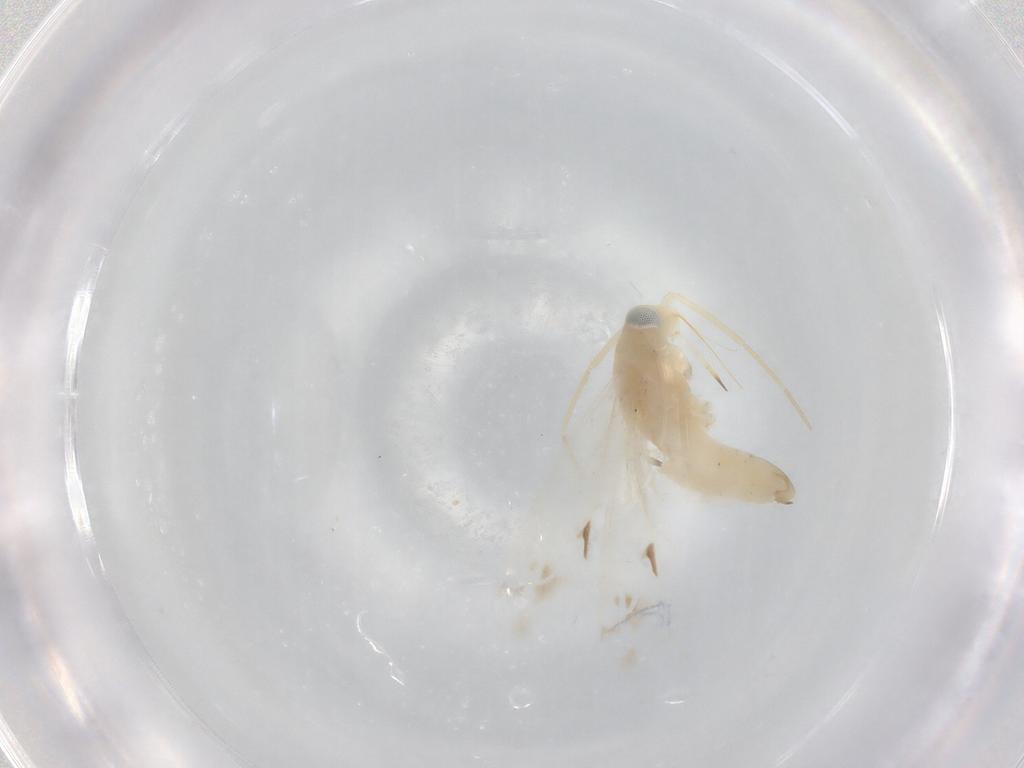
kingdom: Animalia
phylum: Arthropoda
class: Insecta
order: Hemiptera
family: Miridae
